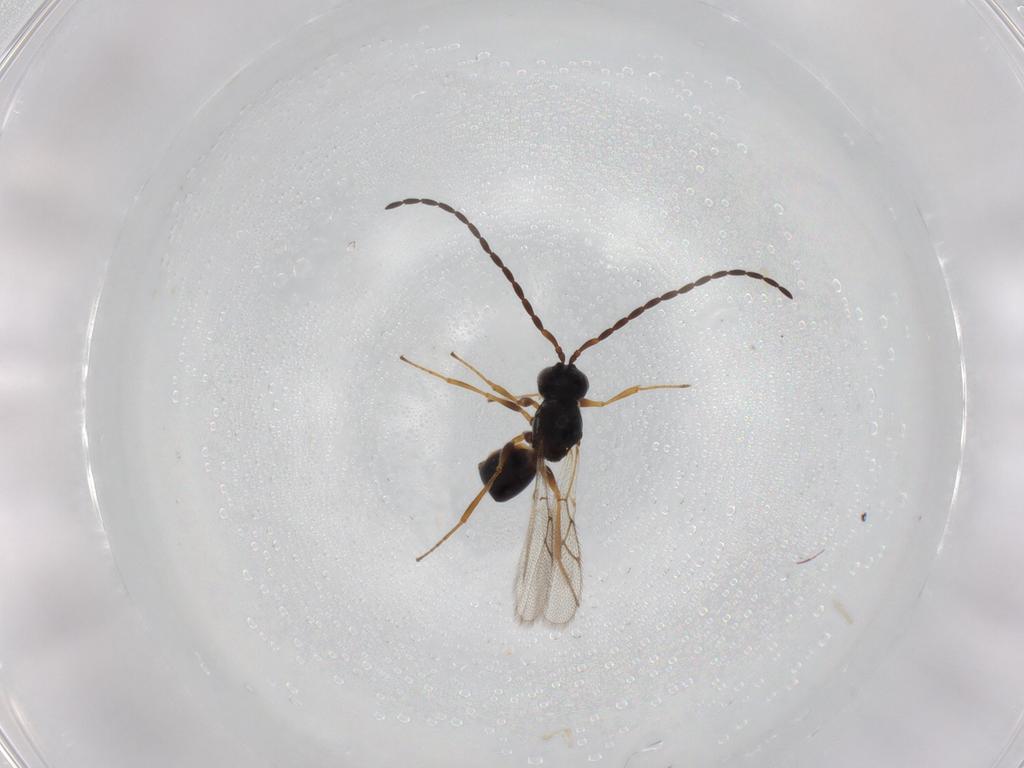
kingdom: Animalia
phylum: Arthropoda
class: Insecta
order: Hymenoptera
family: Figitidae
